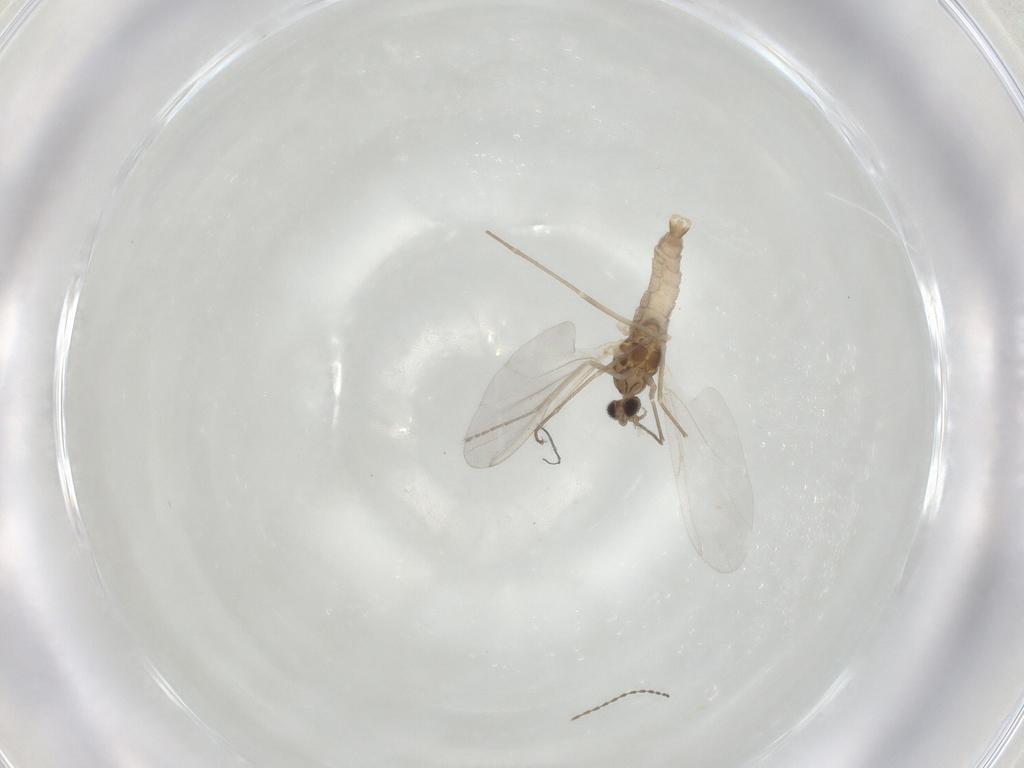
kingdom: Animalia
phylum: Arthropoda
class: Insecta
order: Diptera
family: Cecidomyiidae
